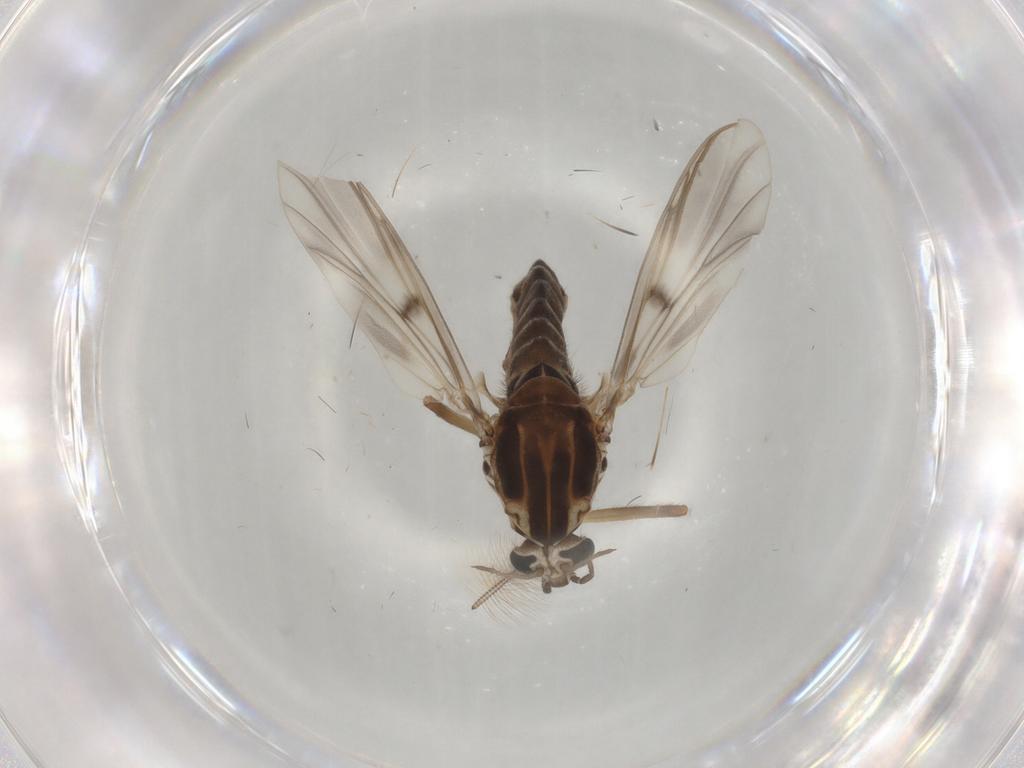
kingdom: Animalia
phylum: Arthropoda
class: Insecta
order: Diptera
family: Chironomidae
